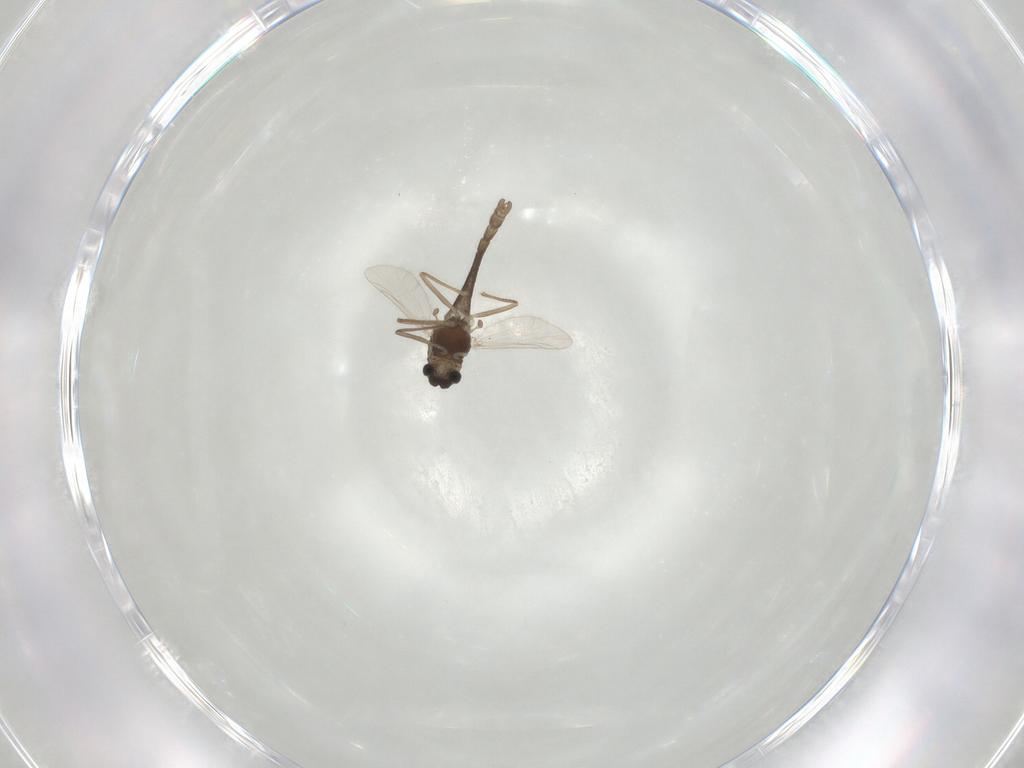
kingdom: Animalia
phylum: Arthropoda
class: Insecta
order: Diptera
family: Chironomidae
